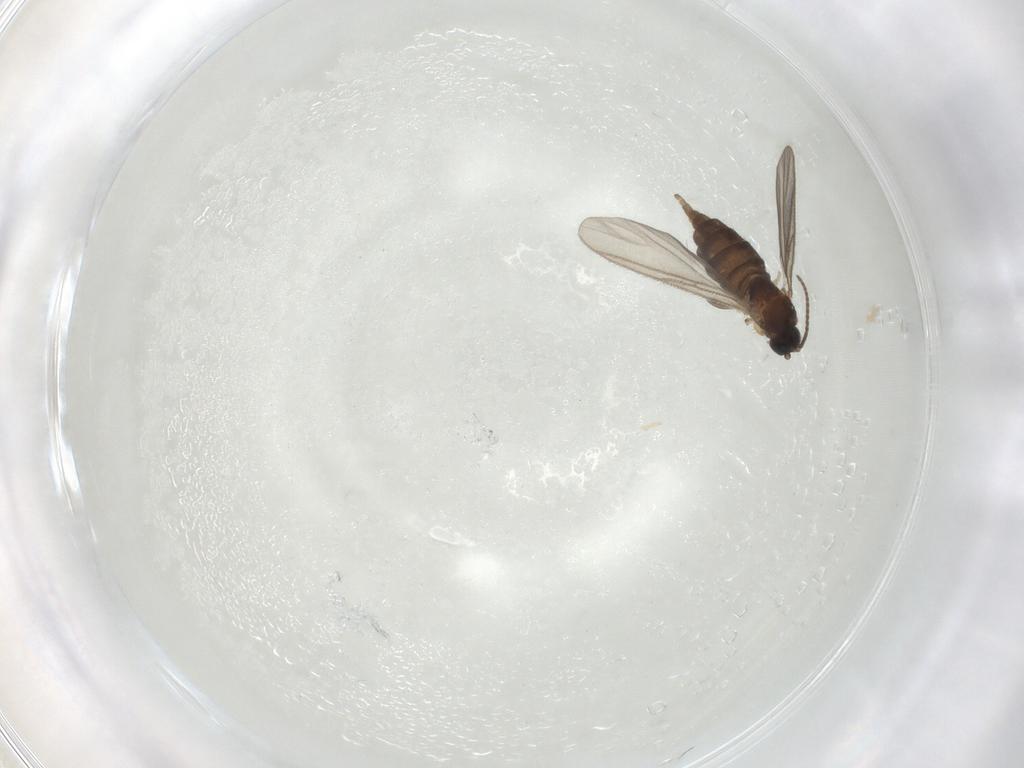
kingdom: Animalia
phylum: Arthropoda
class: Insecta
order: Diptera
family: Sciaridae
